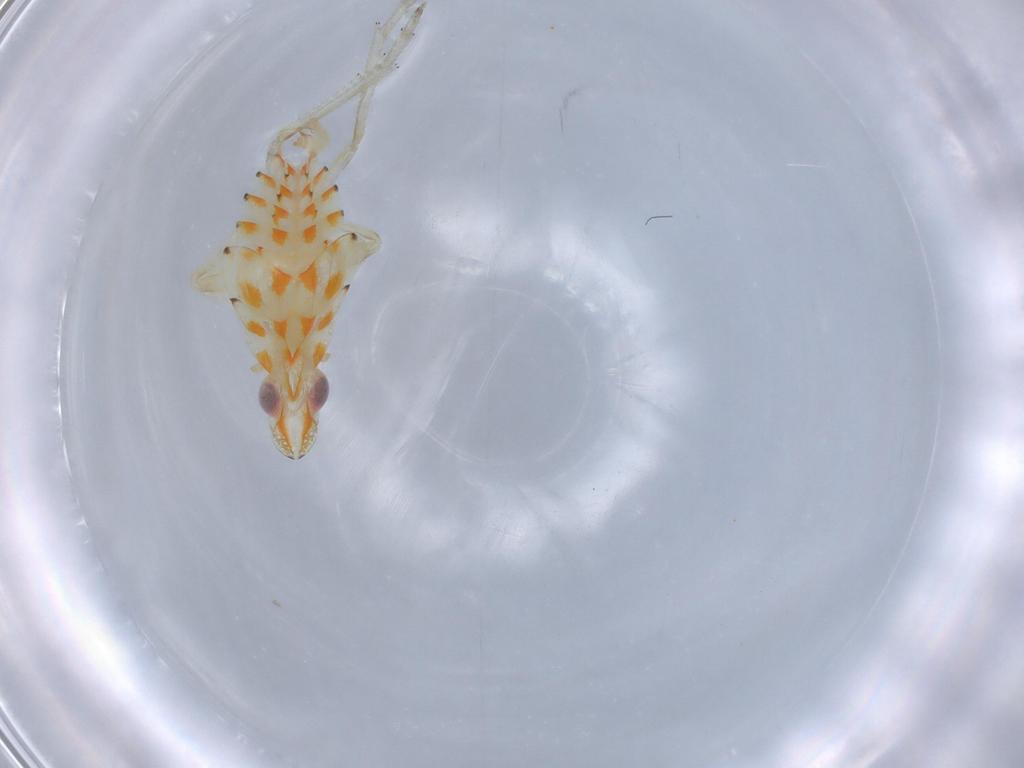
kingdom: Animalia
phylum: Arthropoda
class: Insecta
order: Hemiptera
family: Tropiduchidae
